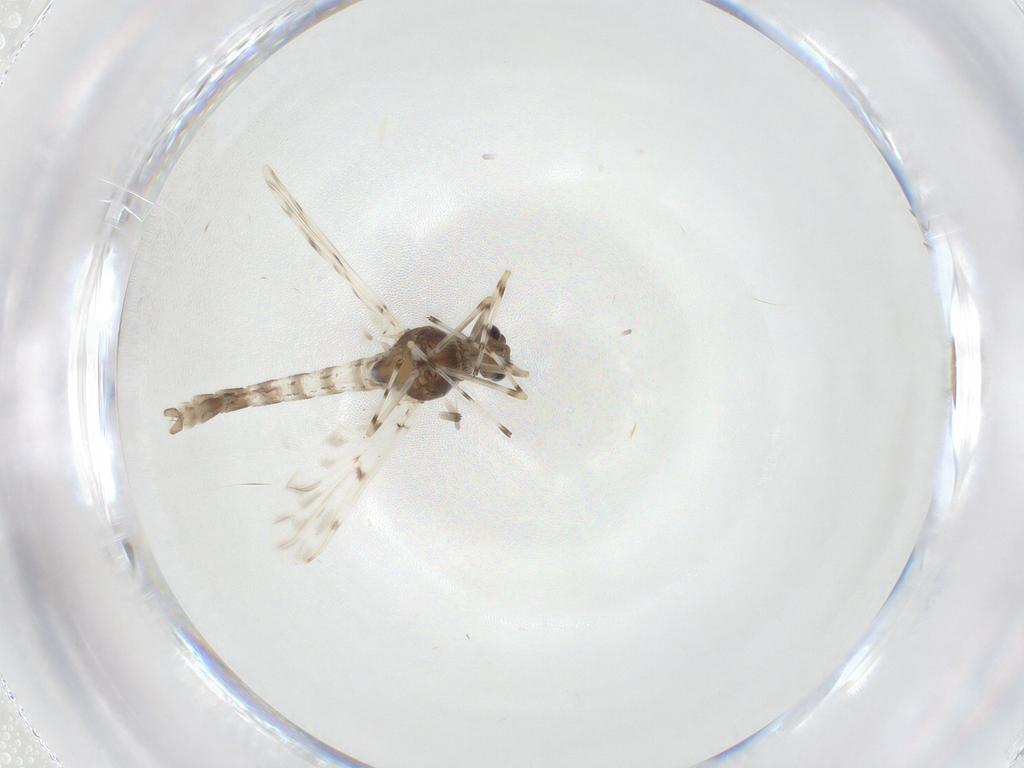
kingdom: Animalia
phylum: Arthropoda
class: Insecta
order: Diptera
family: Chironomidae
